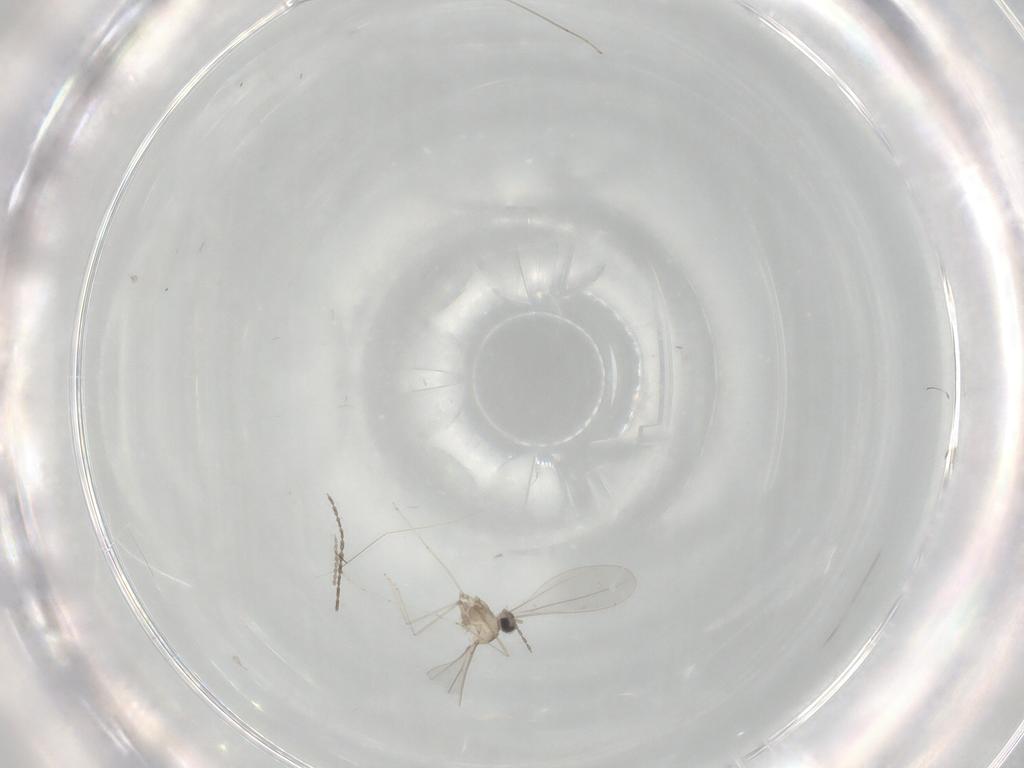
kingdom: Animalia
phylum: Arthropoda
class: Insecta
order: Diptera
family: Cecidomyiidae
